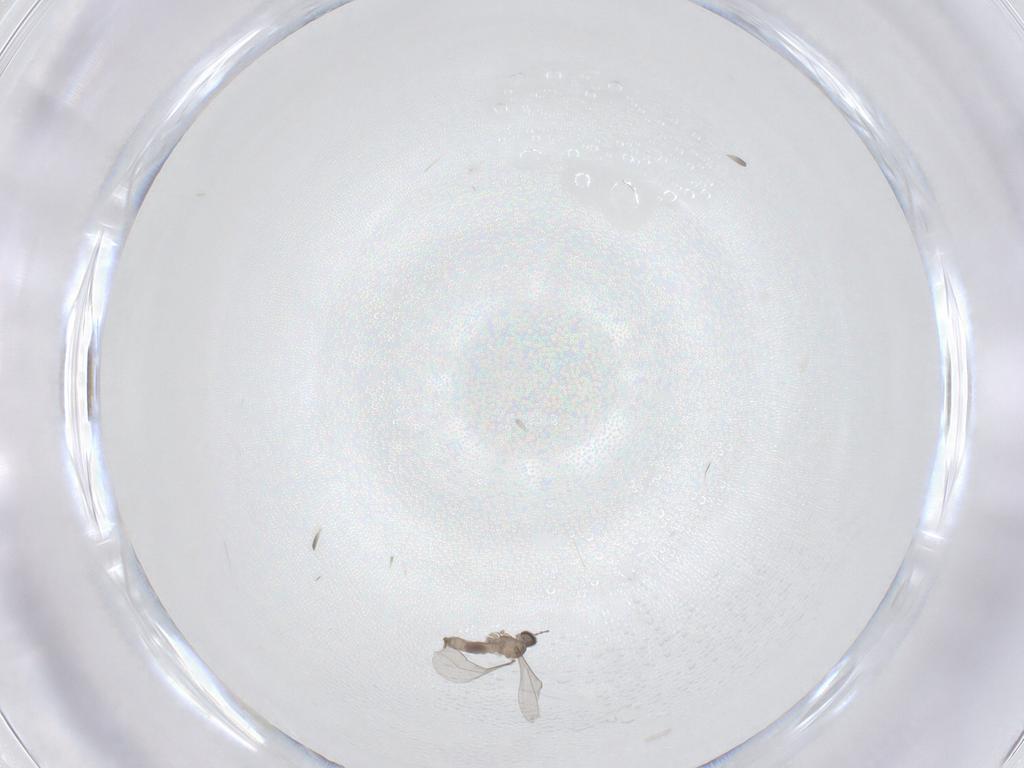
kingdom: Animalia
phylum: Arthropoda
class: Insecta
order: Diptera
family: Cecidomyiidae
